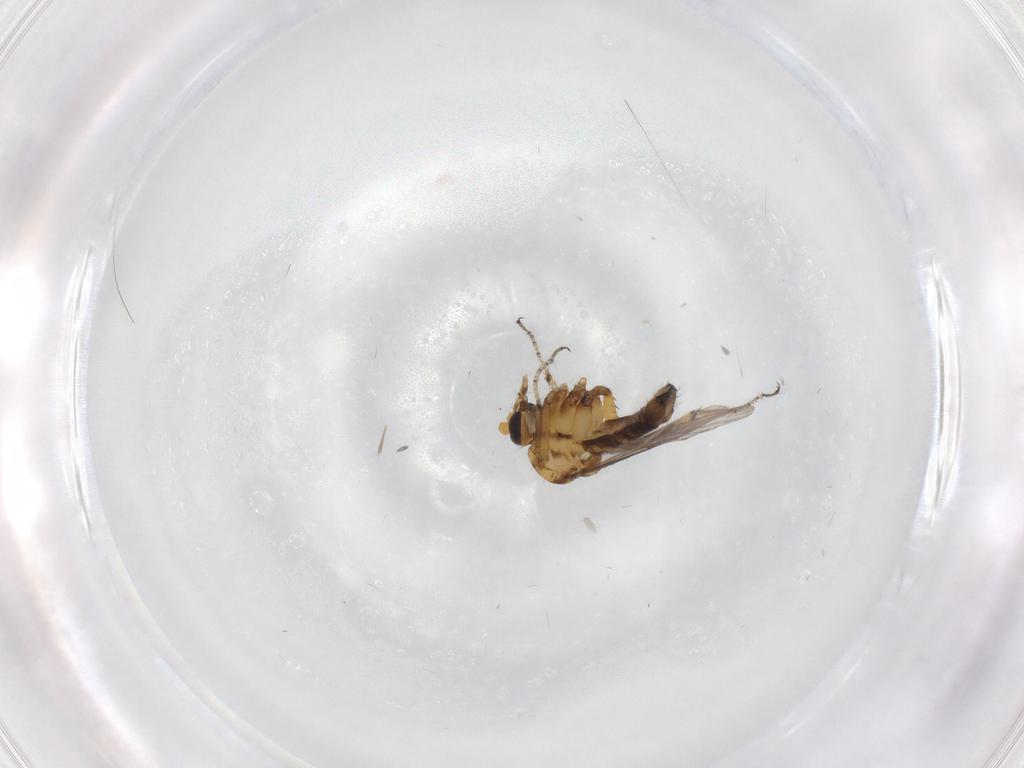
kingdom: Animalia
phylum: Arthropoda
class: Insecta
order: Diptera
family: Ceratopogonidae
